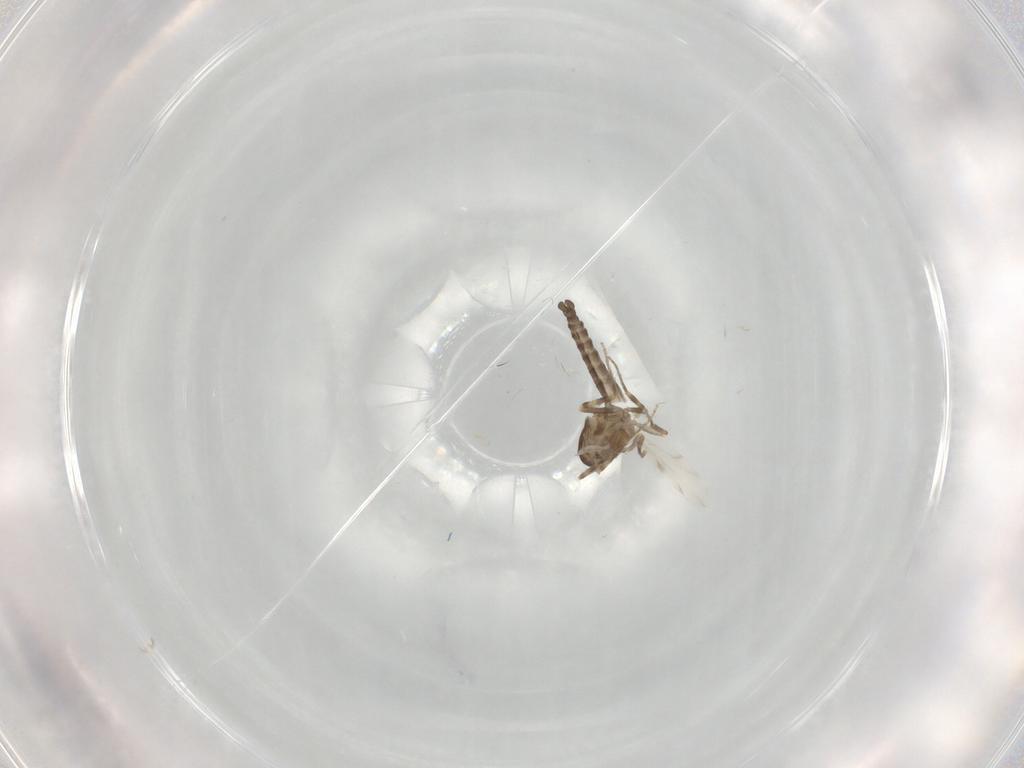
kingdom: Animalia
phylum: Arthropoda
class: Insecta
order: Diptera
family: Ceratopogonidae
